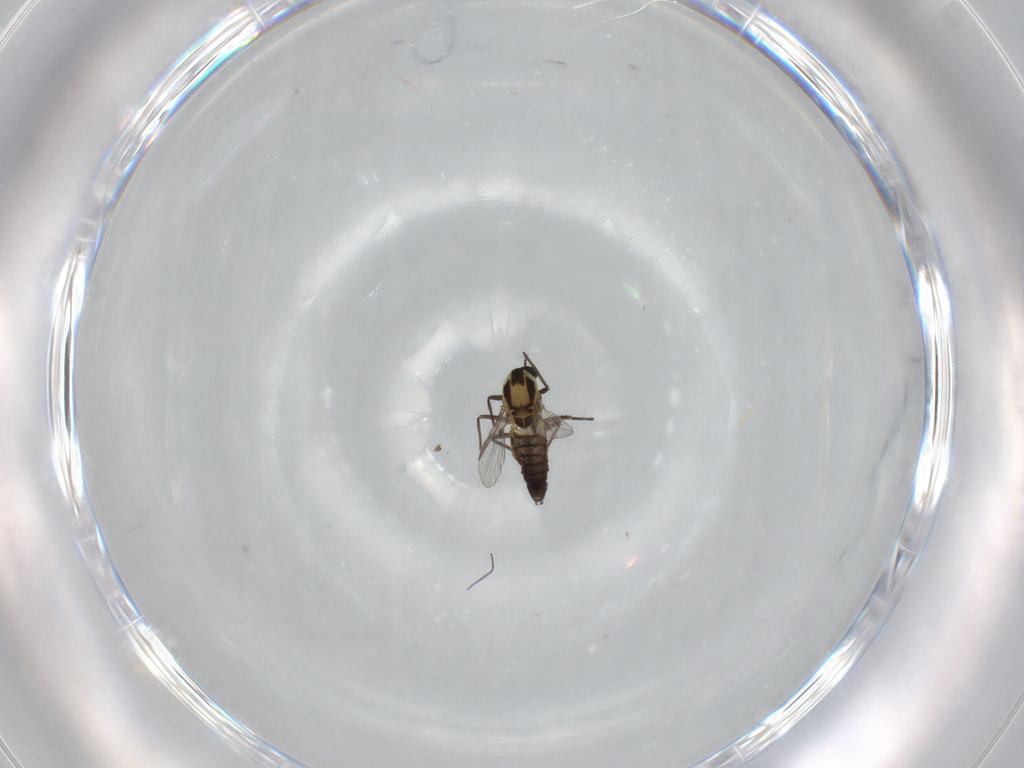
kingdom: Animalia
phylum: Arthropoda
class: Insecta
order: Diptera
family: Chironomidae
